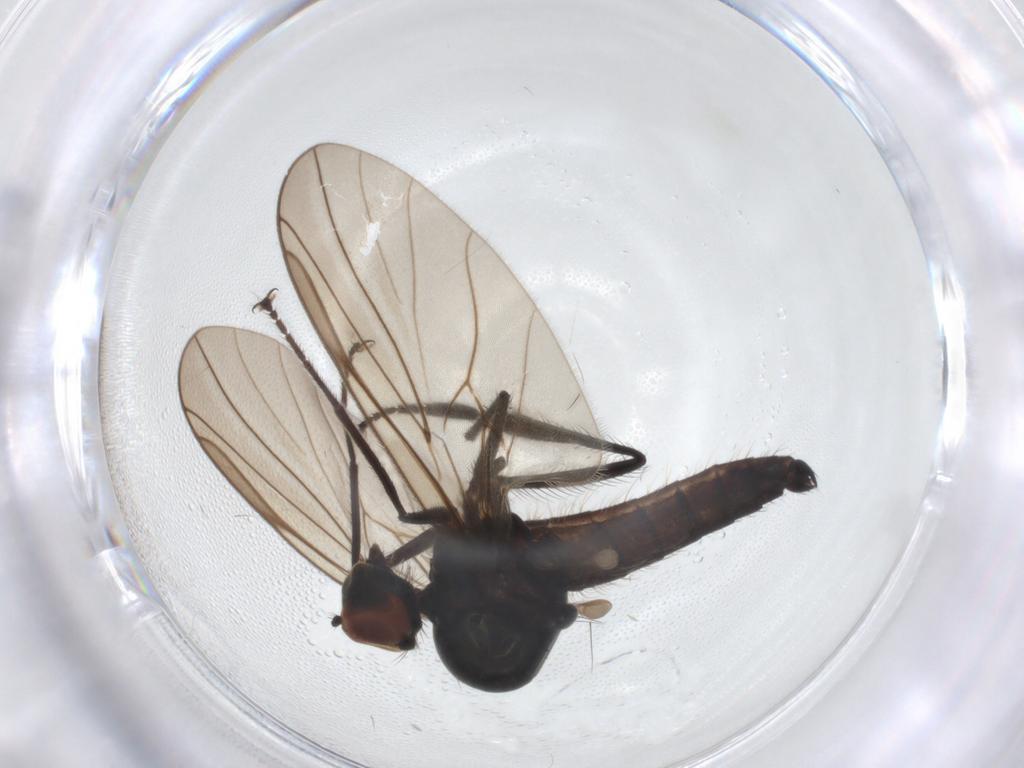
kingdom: Animalia
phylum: Arthropoda
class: Insecta
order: Diptera
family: Hybotidae
